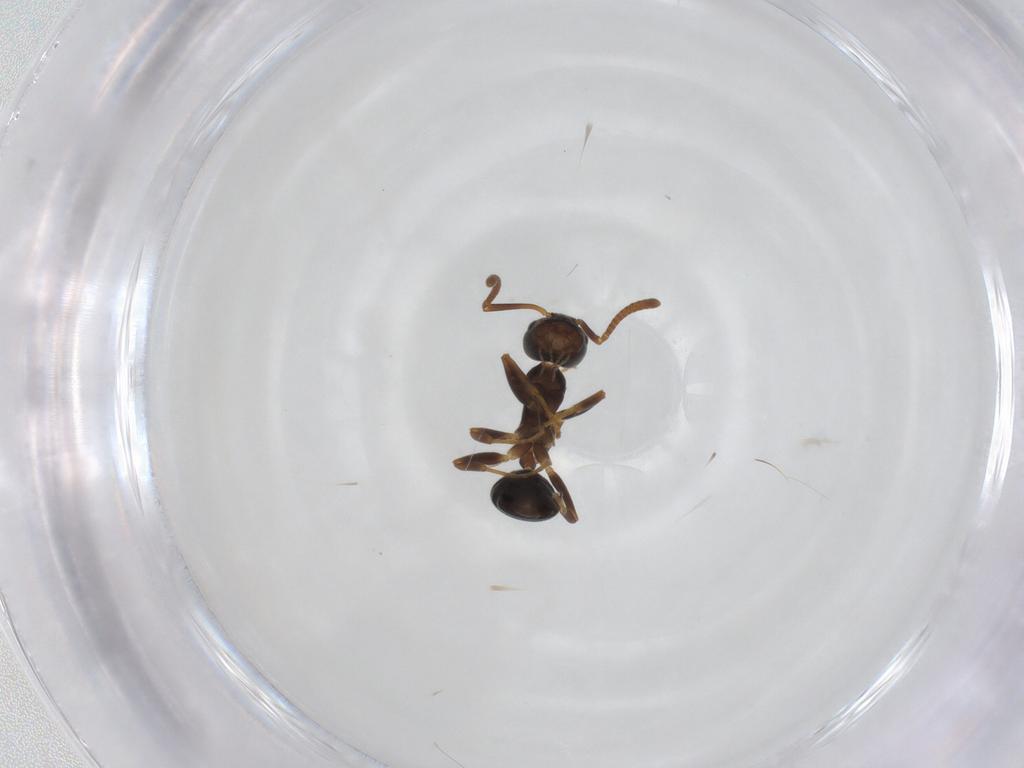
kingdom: Animalia
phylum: Arthropoda
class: Insecta
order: Hymenoptera
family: Formicidae
